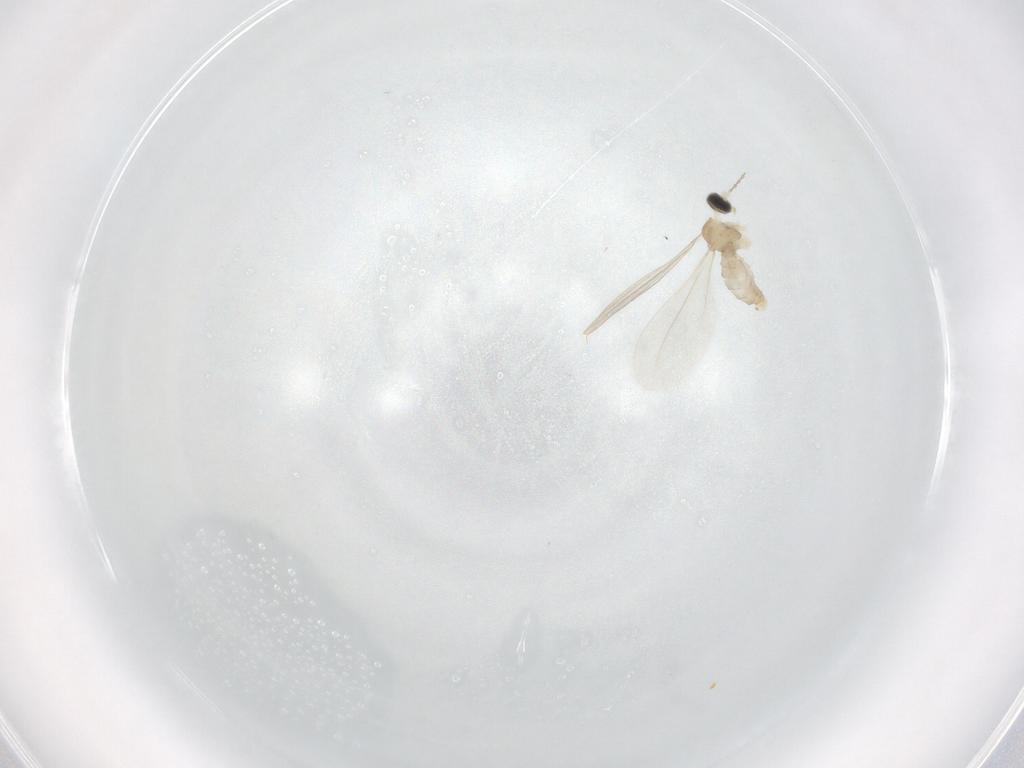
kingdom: Animalia
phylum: Arthropoda
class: Insecta
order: Diptera
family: Cecidomyiidae
